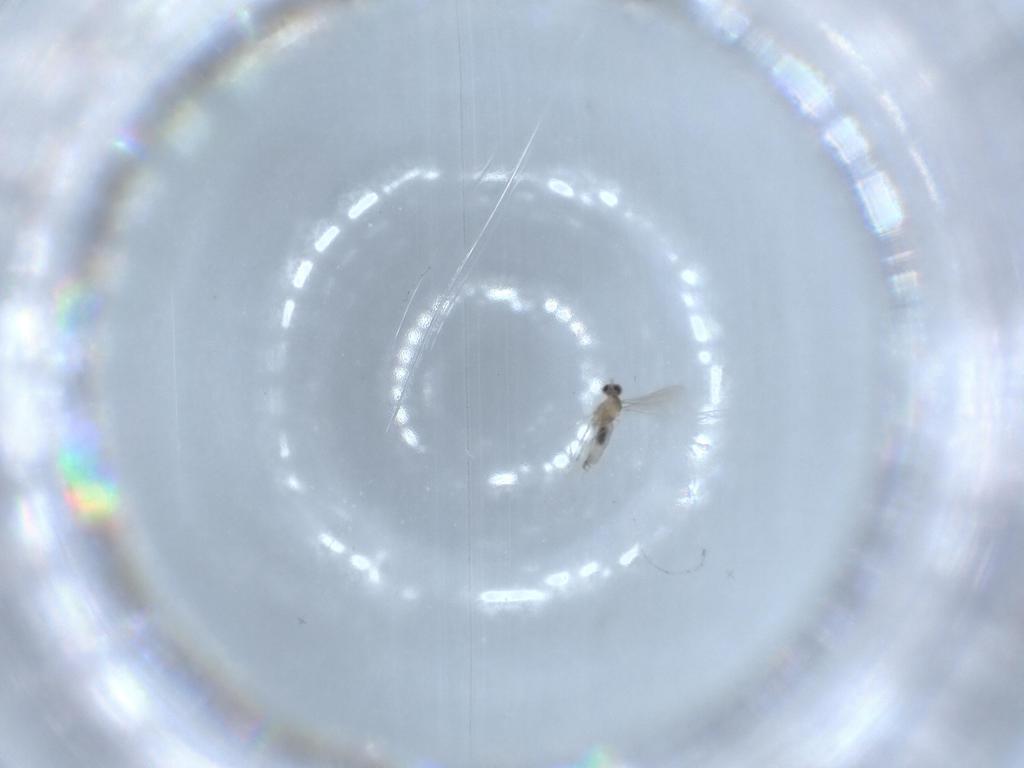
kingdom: Animalia
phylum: Arthropoda
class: Insecta
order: Diptera
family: Cecidomyiidae
